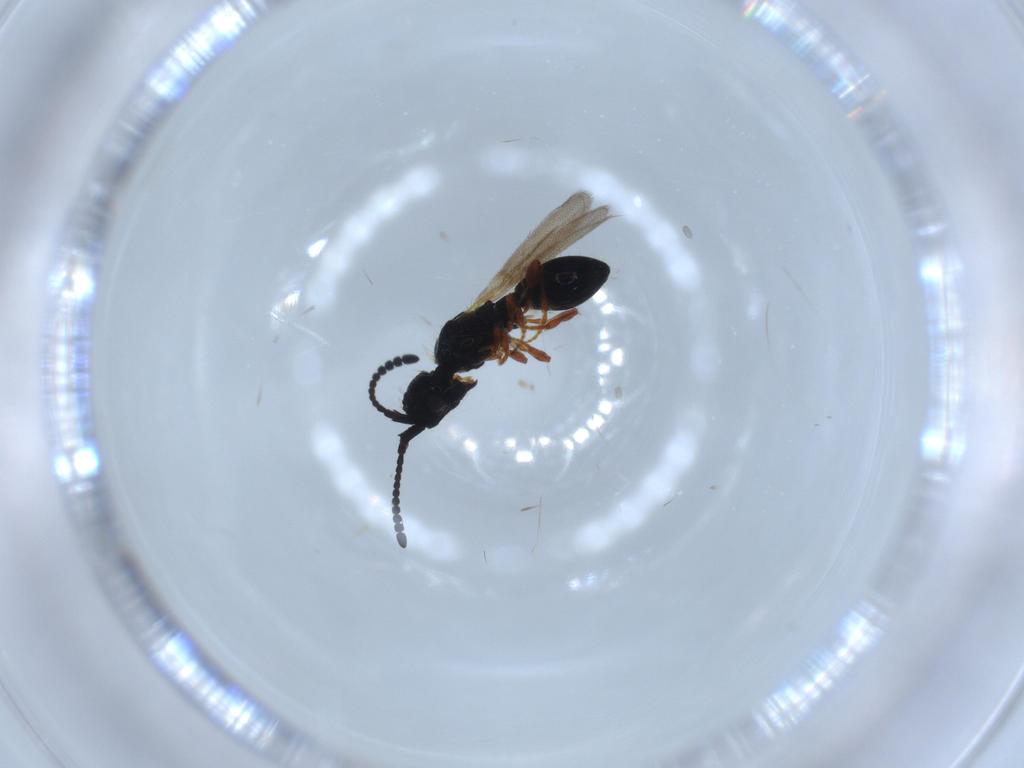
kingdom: Animalia
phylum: Arthropoda
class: Insecta
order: Hymenoptera
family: Diapriidae
